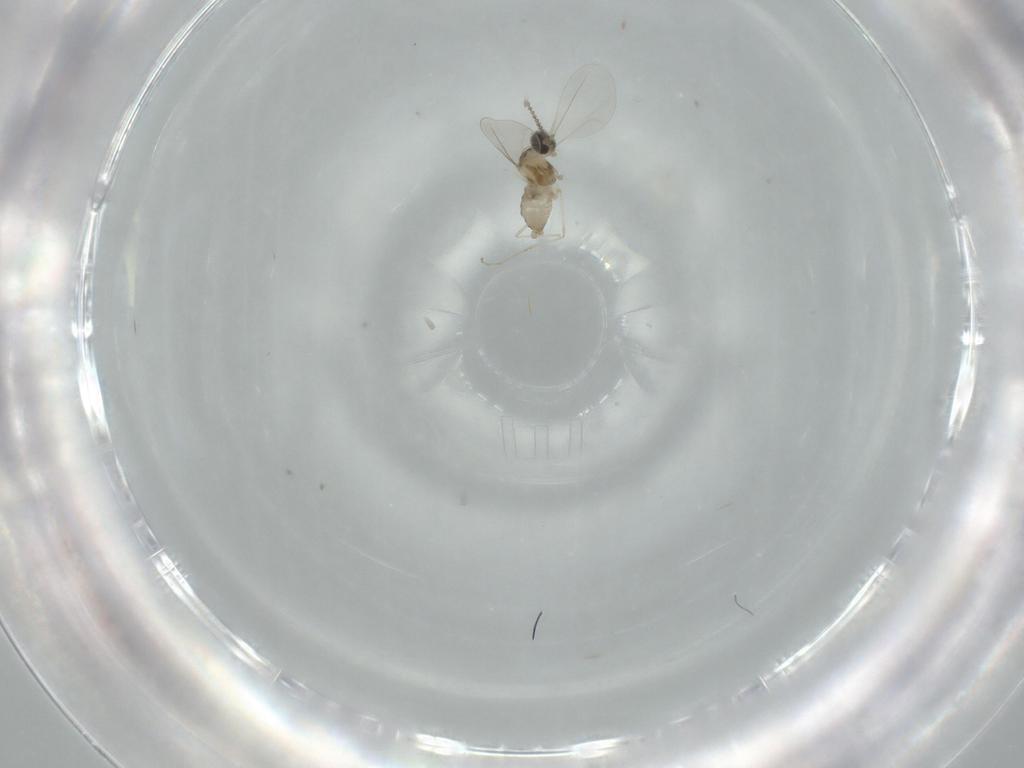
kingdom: Animalia
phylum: Arthropoda
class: Insecta
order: Diptera
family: Cecidomyiidae
